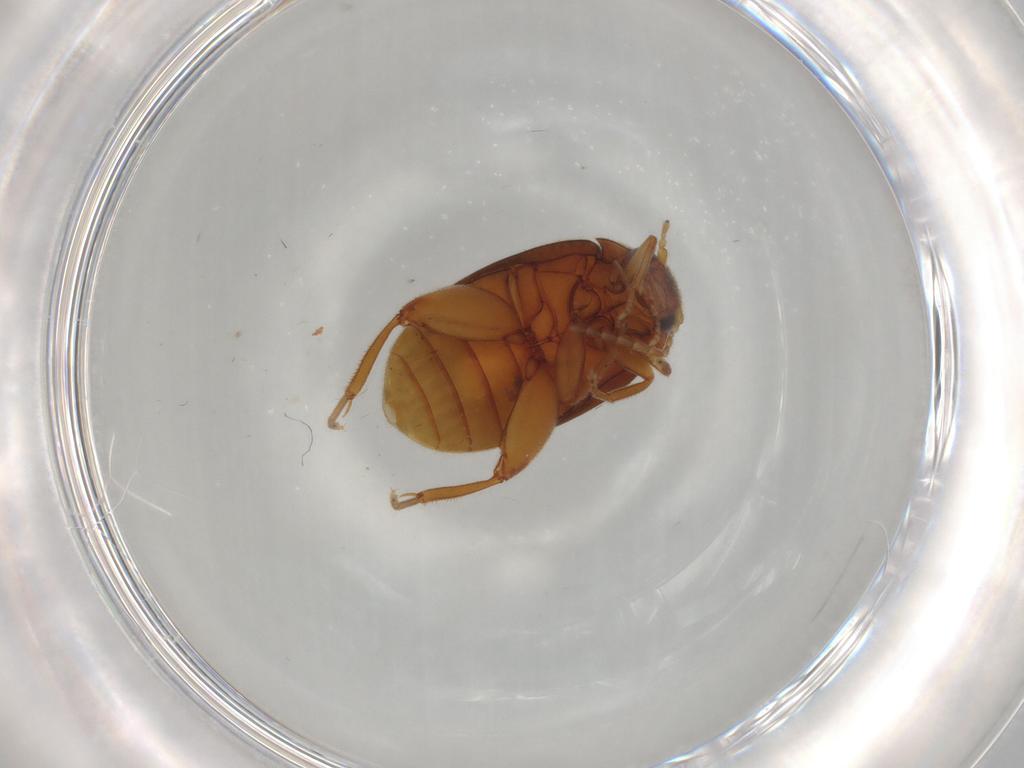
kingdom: Animalia
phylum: Arthropoda
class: Insecta
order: Coleoptera
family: Scirtidae
